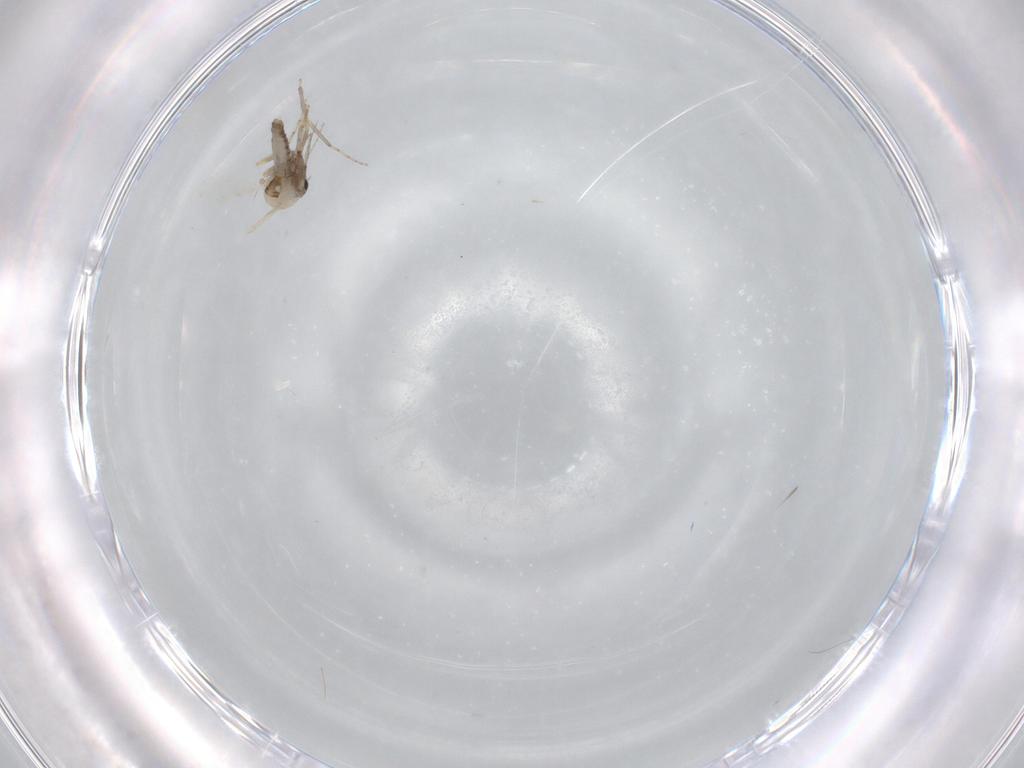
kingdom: Animalia
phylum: Arthropoda
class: Insecta
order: Diptera
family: Ceratopogonidae
